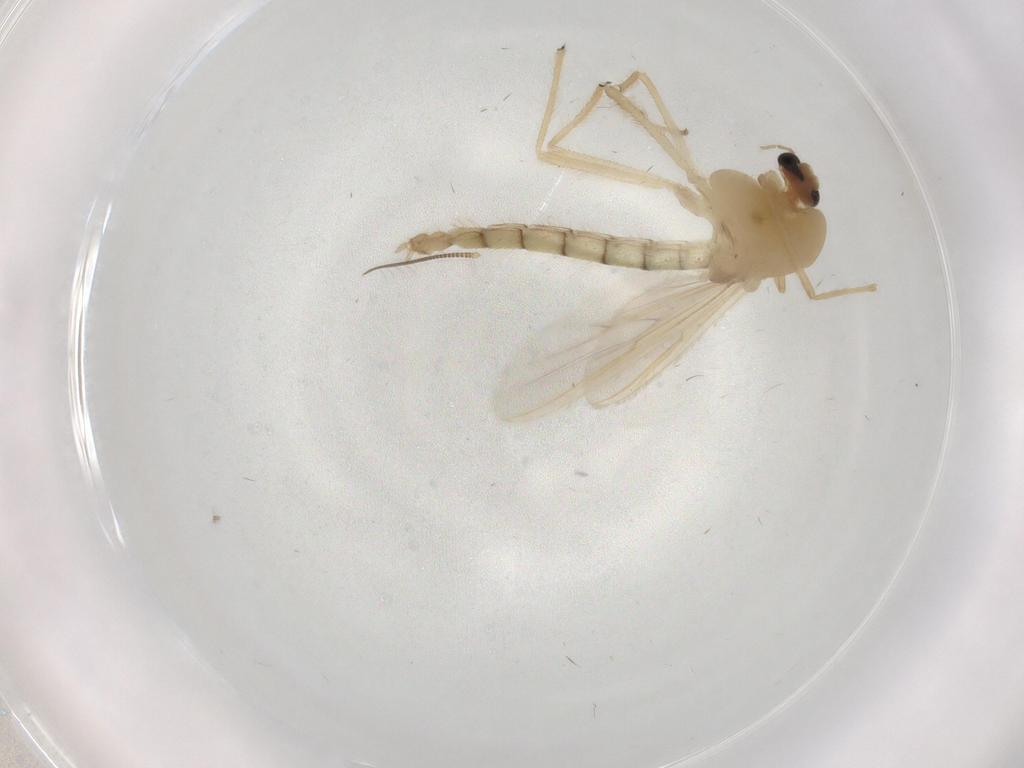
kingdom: Animalia
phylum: Arthropoda
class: Insecta
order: Diptera
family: Chironomidae
